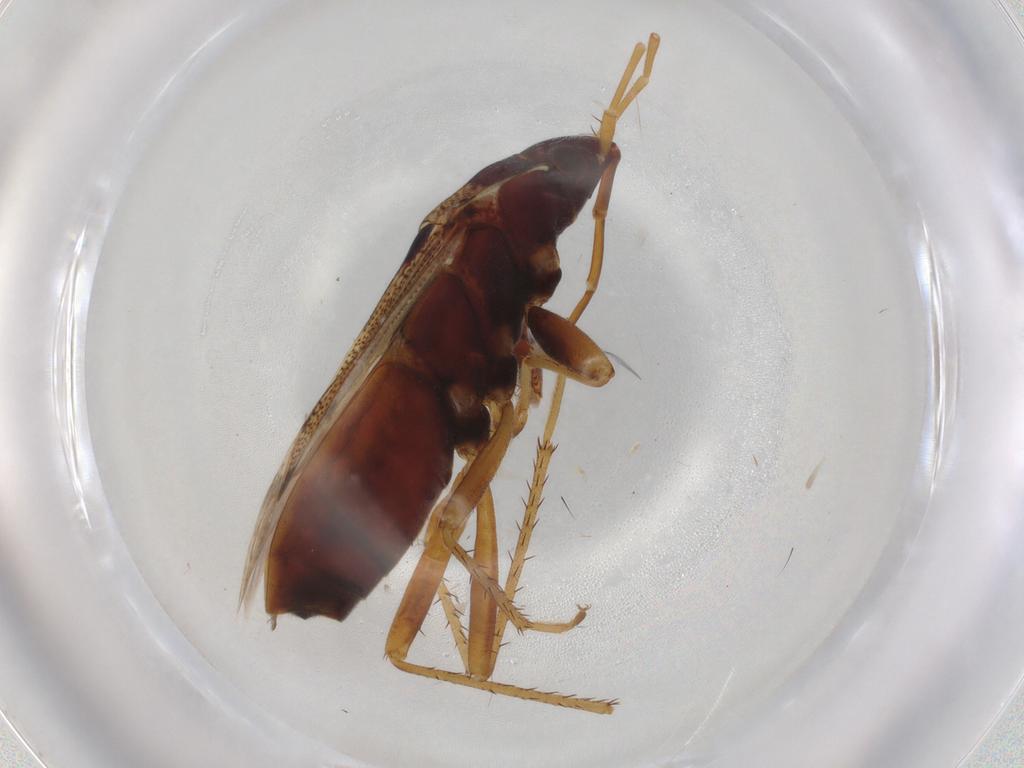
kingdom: Animalia
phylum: Arthropoda
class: Insecta
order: Hemiptera
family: Rhyparochromidae
